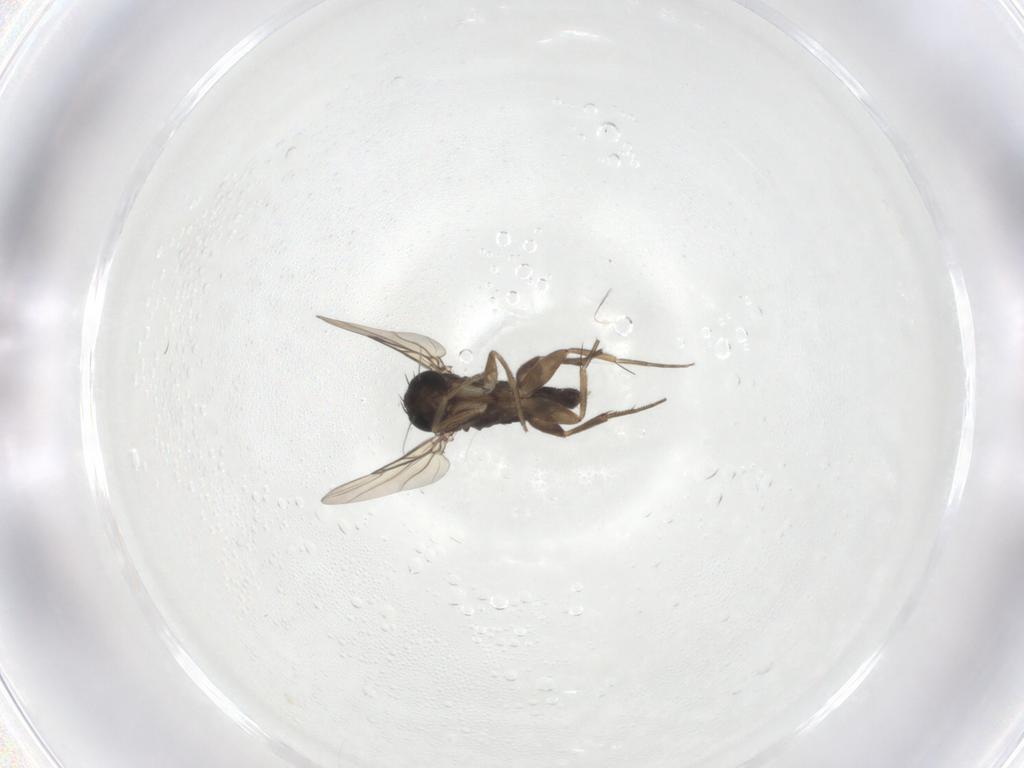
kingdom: Animalia
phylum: Arthropoda
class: Insecta
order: Diptera
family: Phoridae
